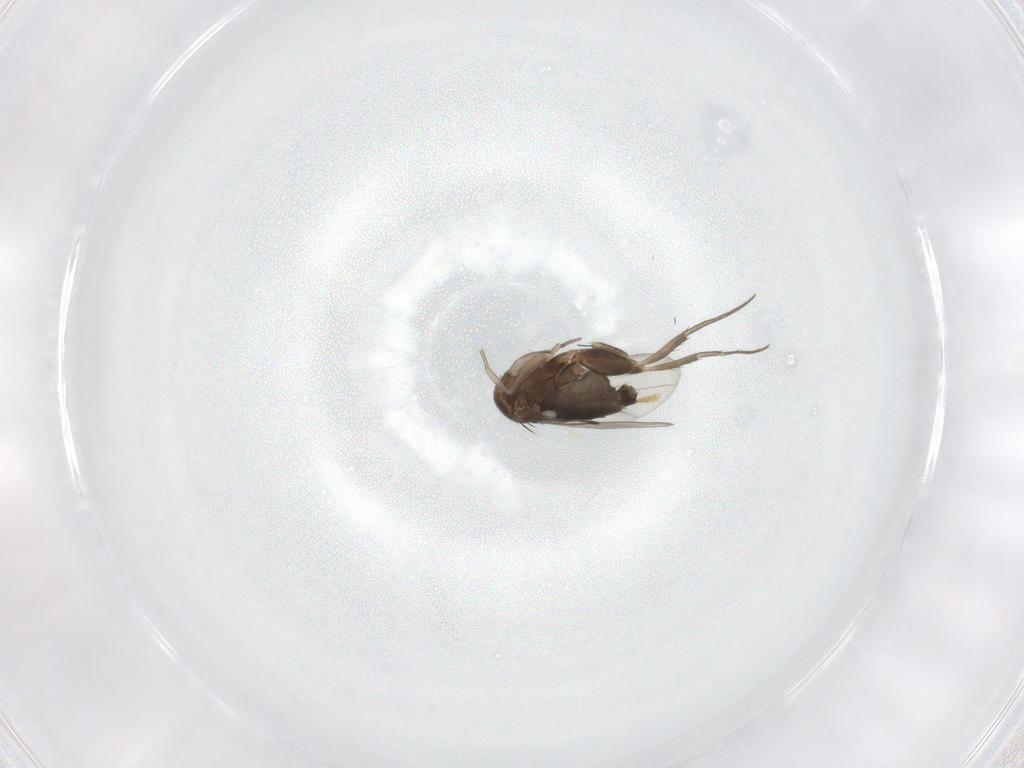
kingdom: Animalia
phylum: Arthropoda
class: Insecta
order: Diptera
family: Phoridae
